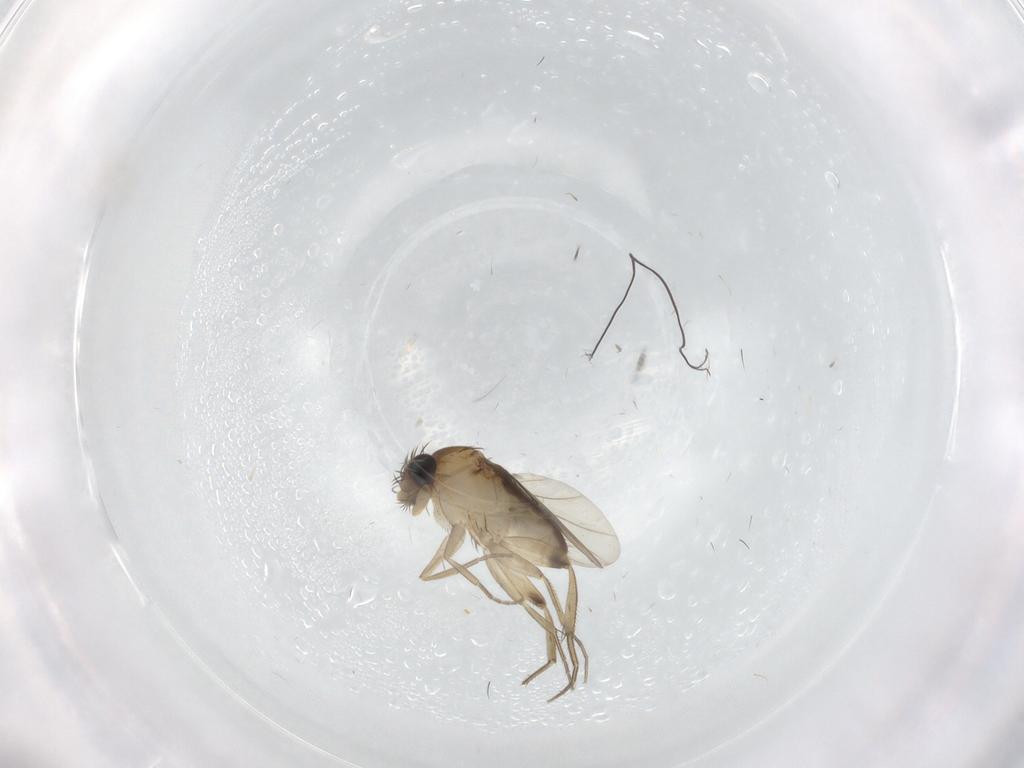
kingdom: Animalia
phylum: Arthropoda
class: Insecta
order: Diptera
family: Phoridae
